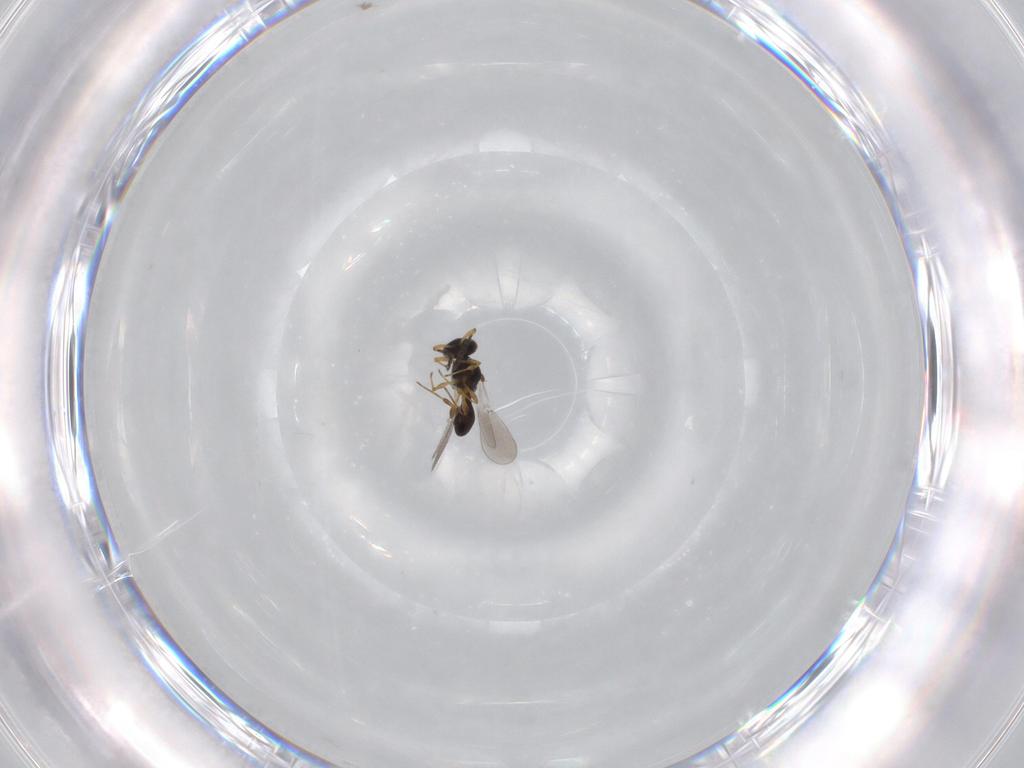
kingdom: Animalia
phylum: Arthropoda
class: Insecta
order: Hymenoptera
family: Platygastridae
